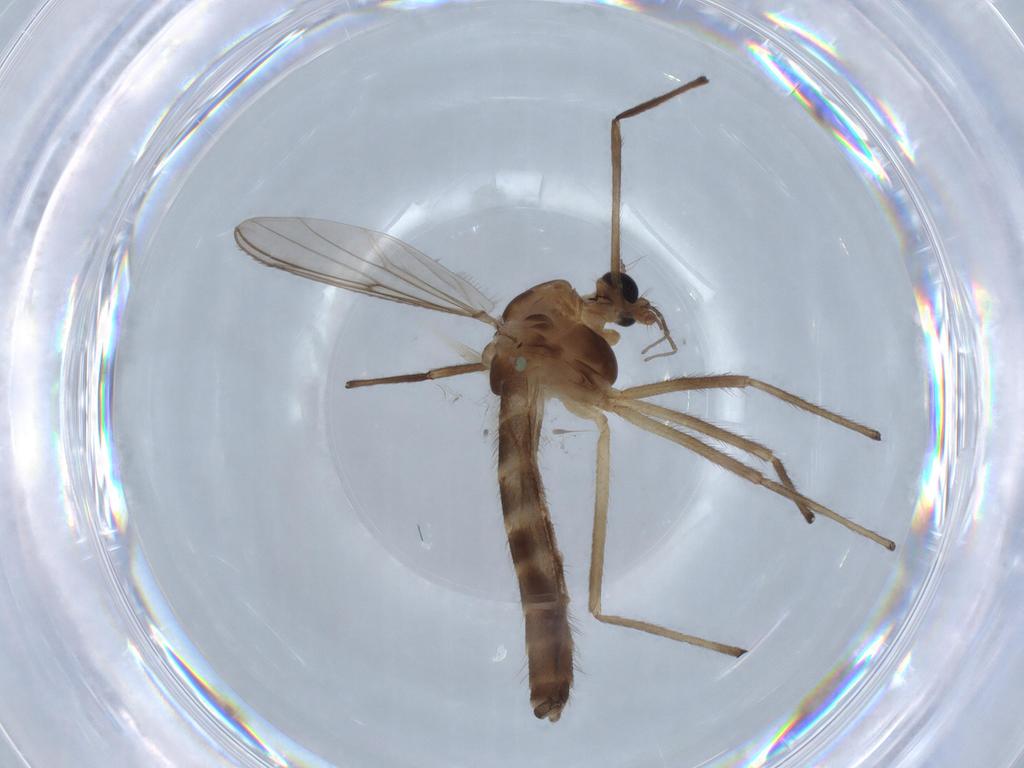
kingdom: Animalia
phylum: Arthropoda
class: Insecta
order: Diptera
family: Chironomidae
